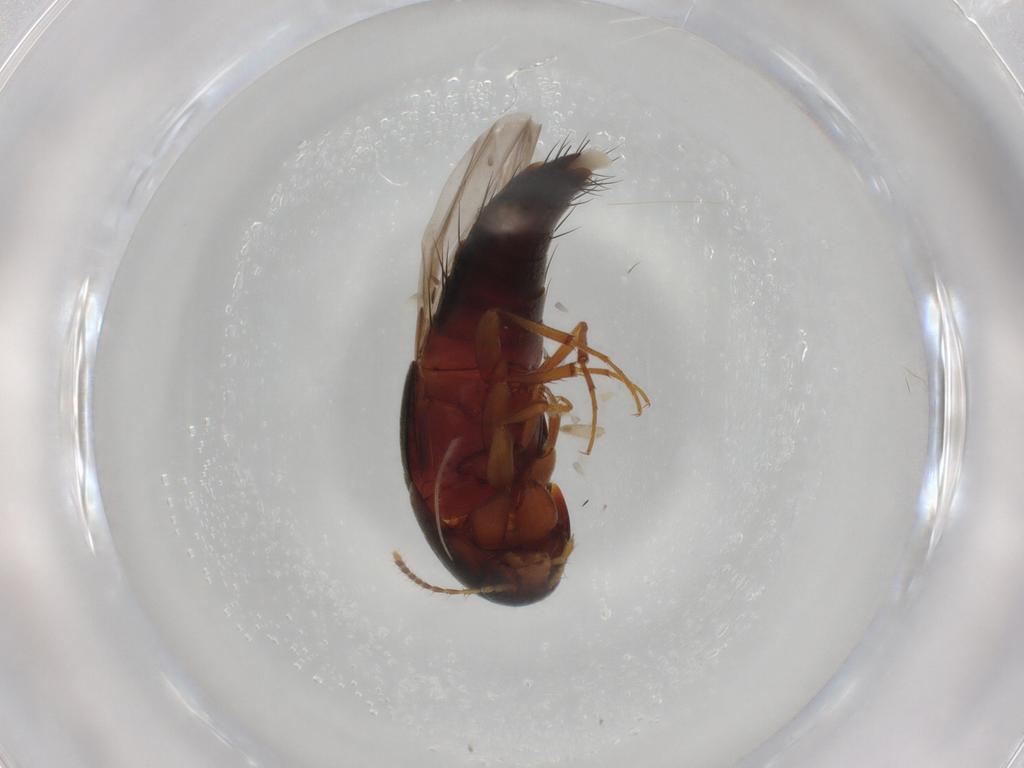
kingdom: Animalia
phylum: Arthropoda
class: Insecta
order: Coleoptera
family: Staphylinidae
